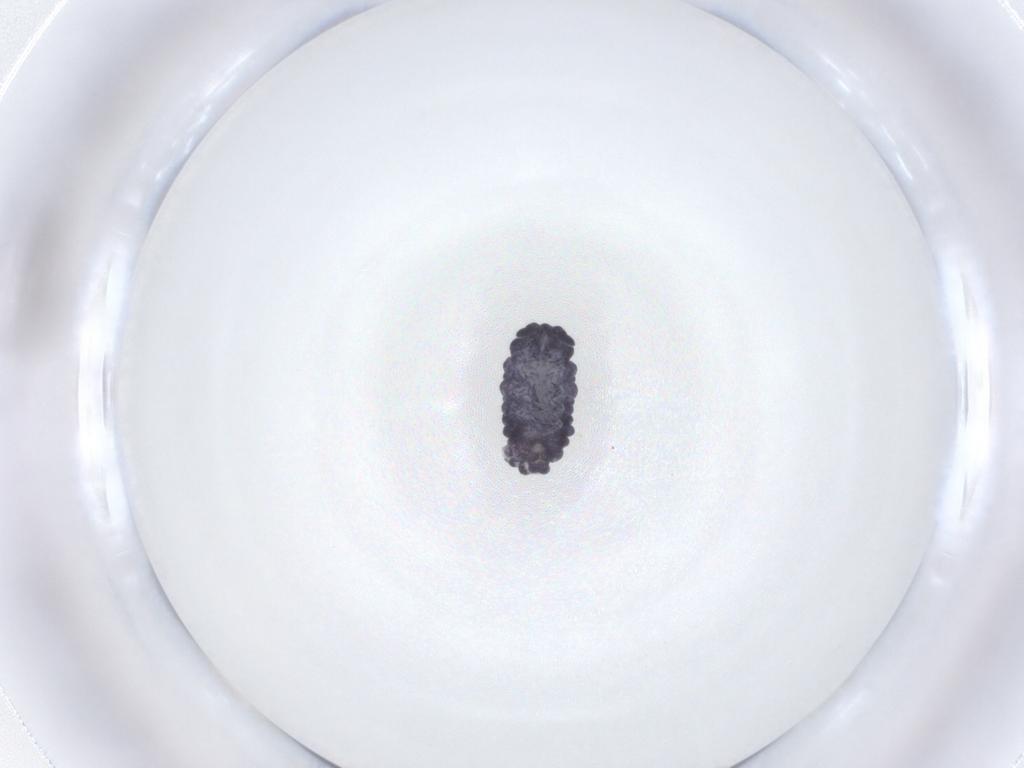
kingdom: Animalia
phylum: Arthropoda
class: Collembola
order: Poduromorpha
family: Neanuridae
